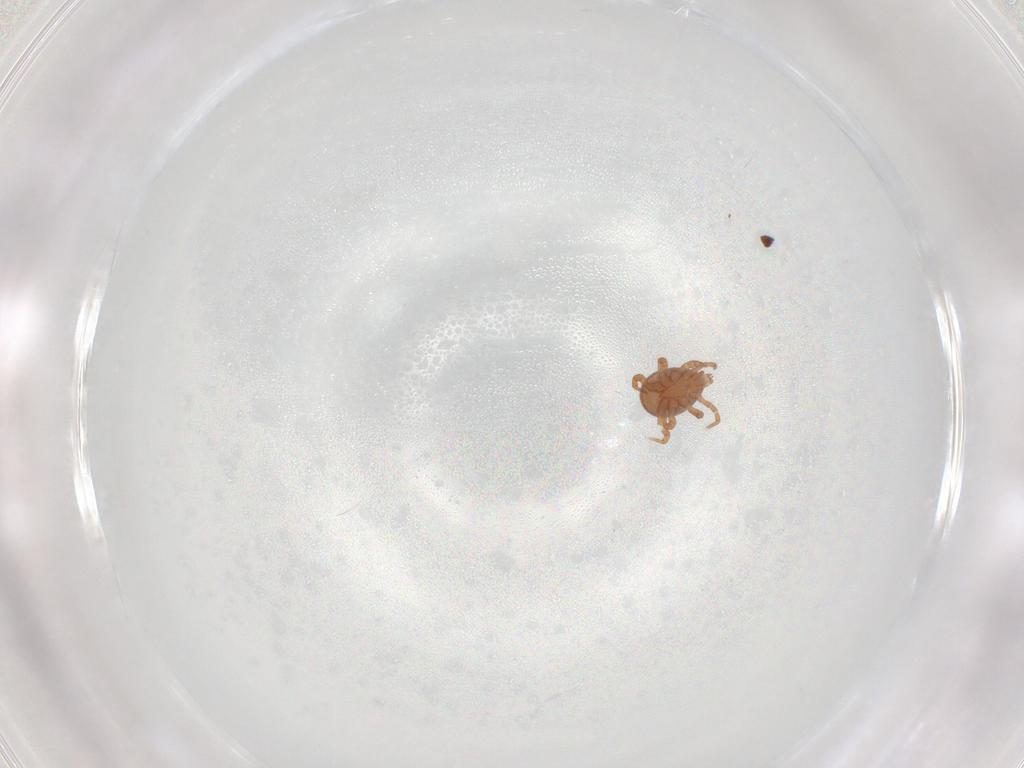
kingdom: Animalia
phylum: Arthropoda
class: Arachnida
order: Mesostigmata
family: Eviphididae
